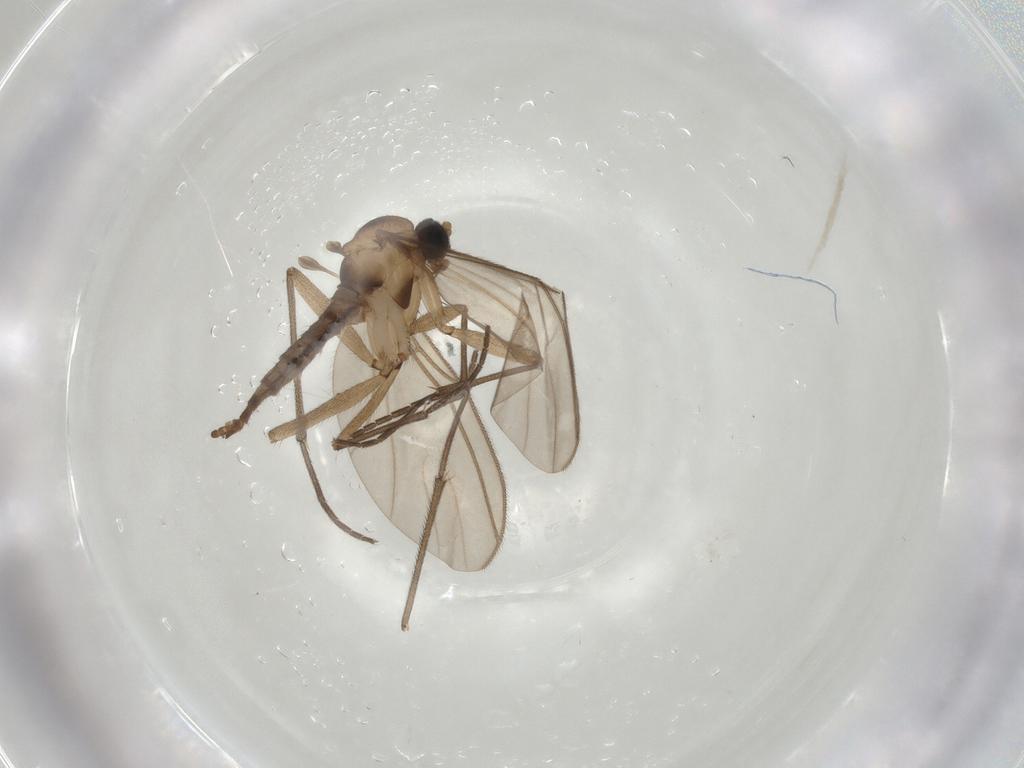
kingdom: Animalia
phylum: Arthropoda
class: Insecta
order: Diptera
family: Sciaridae
